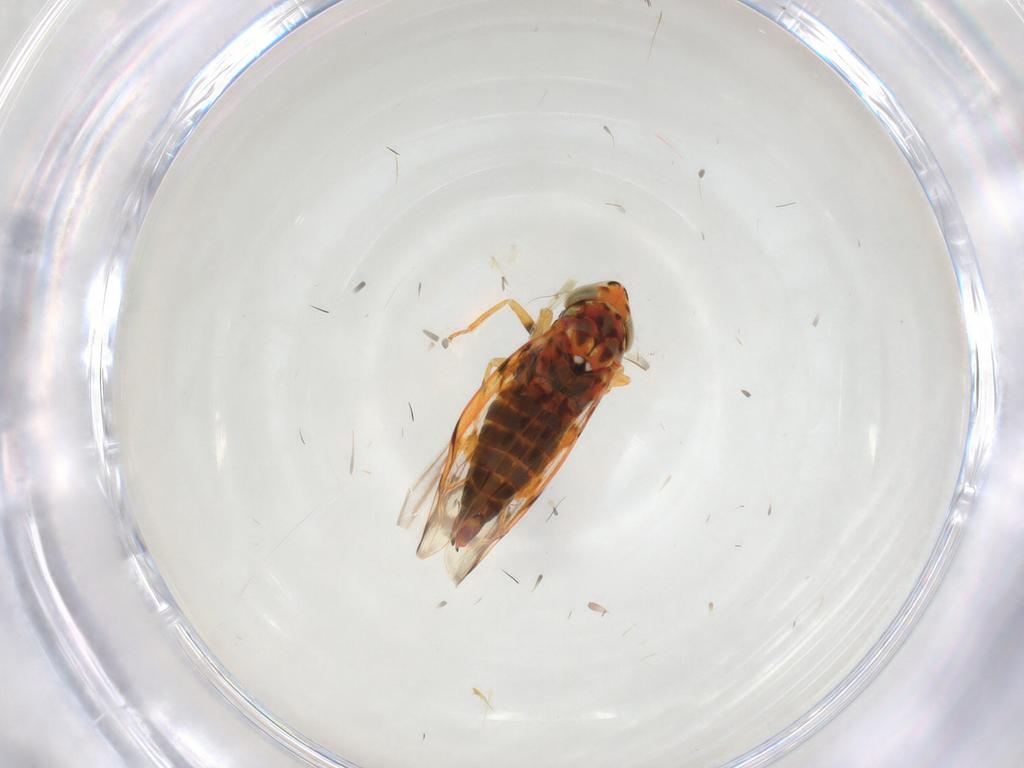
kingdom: Animalia
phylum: Arthropoda
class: Insecta
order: Hemiptera
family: Cicadellidae
